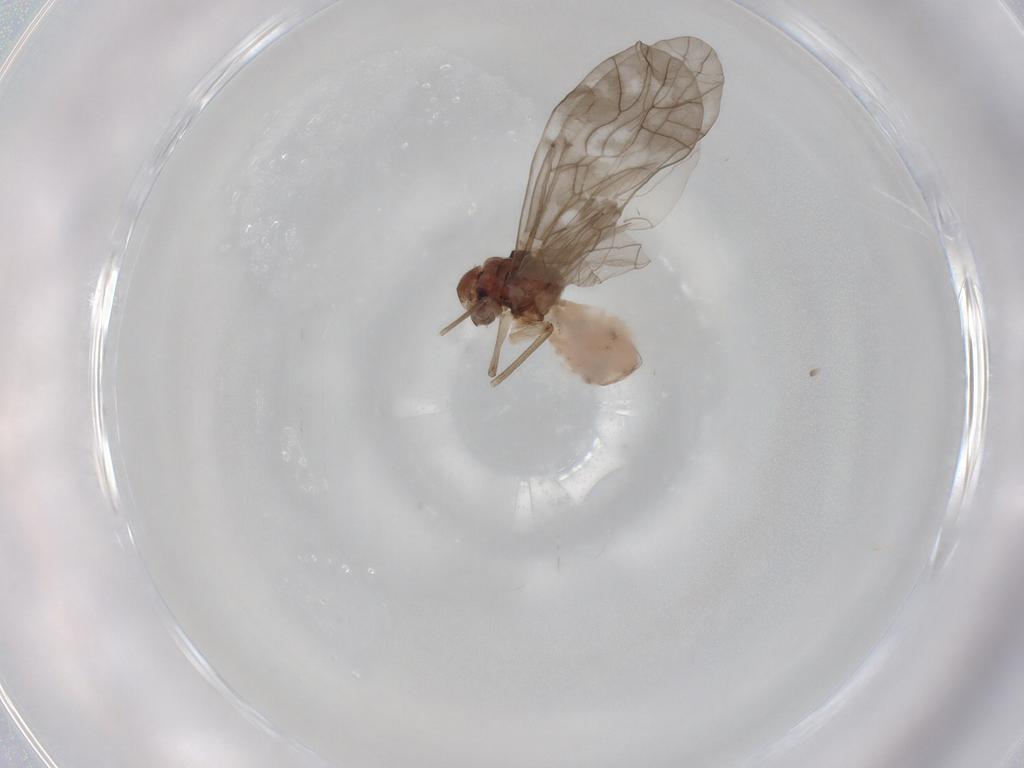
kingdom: Animalia
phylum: Arthropoda
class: Insecta
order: Psocodea
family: Peripsocidae
